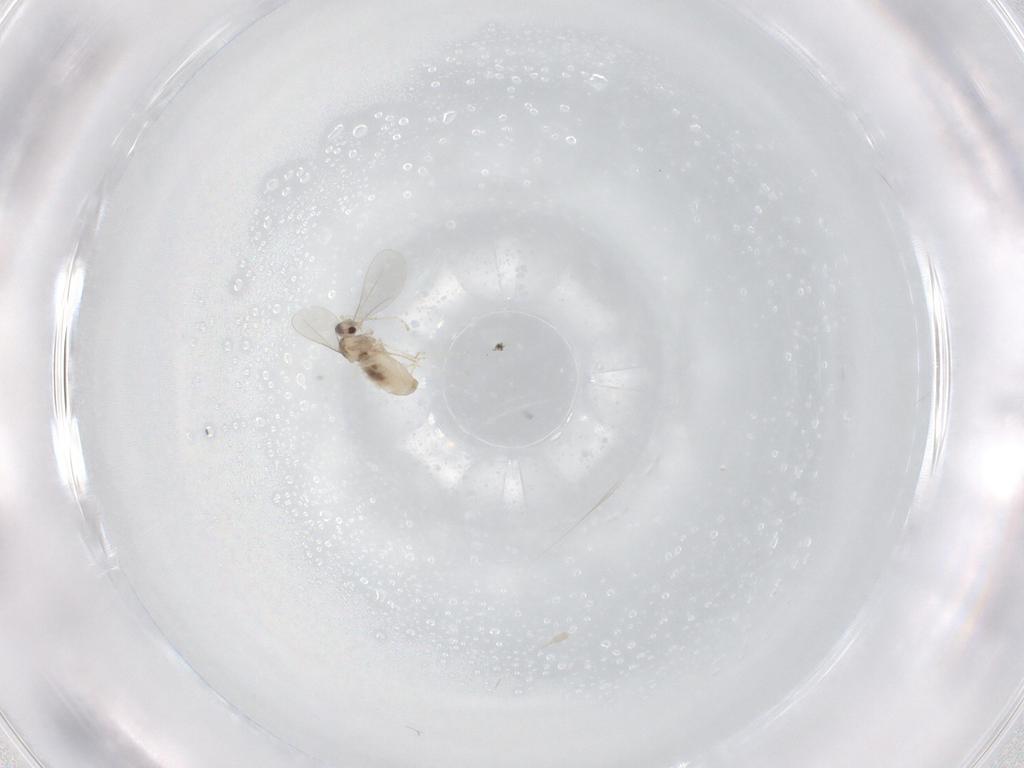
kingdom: Animalia
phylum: Arthropoda
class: Insecta
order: Diptera
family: Cecidomyiidae
